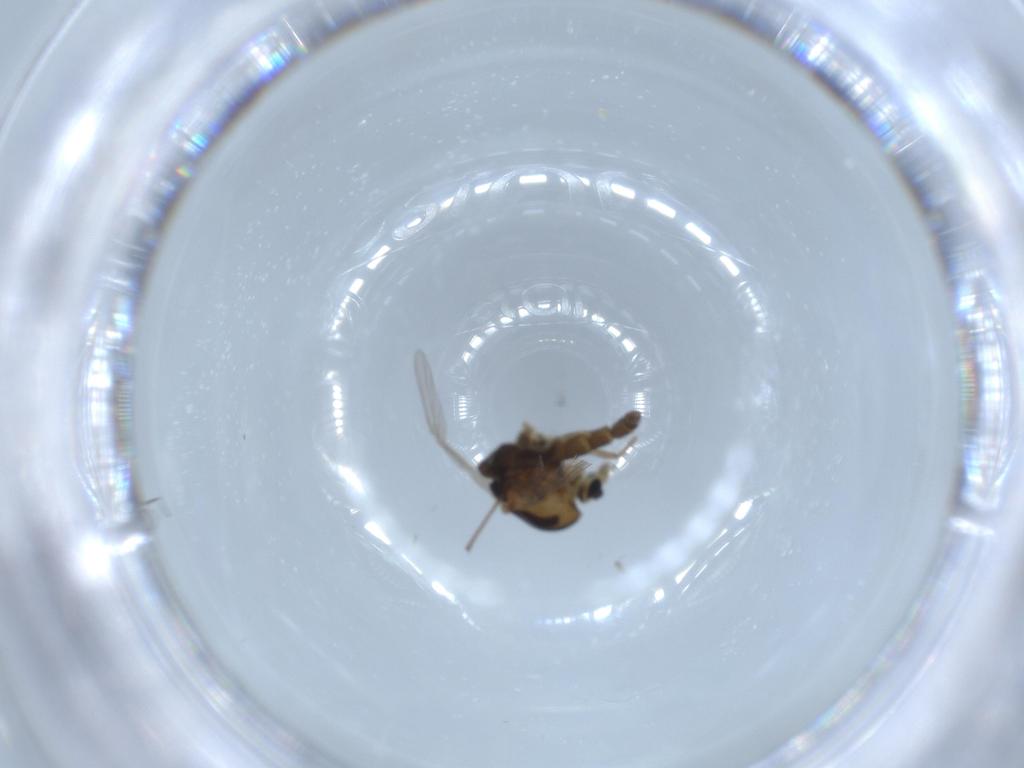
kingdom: Animalia
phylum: Arthropoda
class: Insecta
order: Diptera
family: Chironomidae
